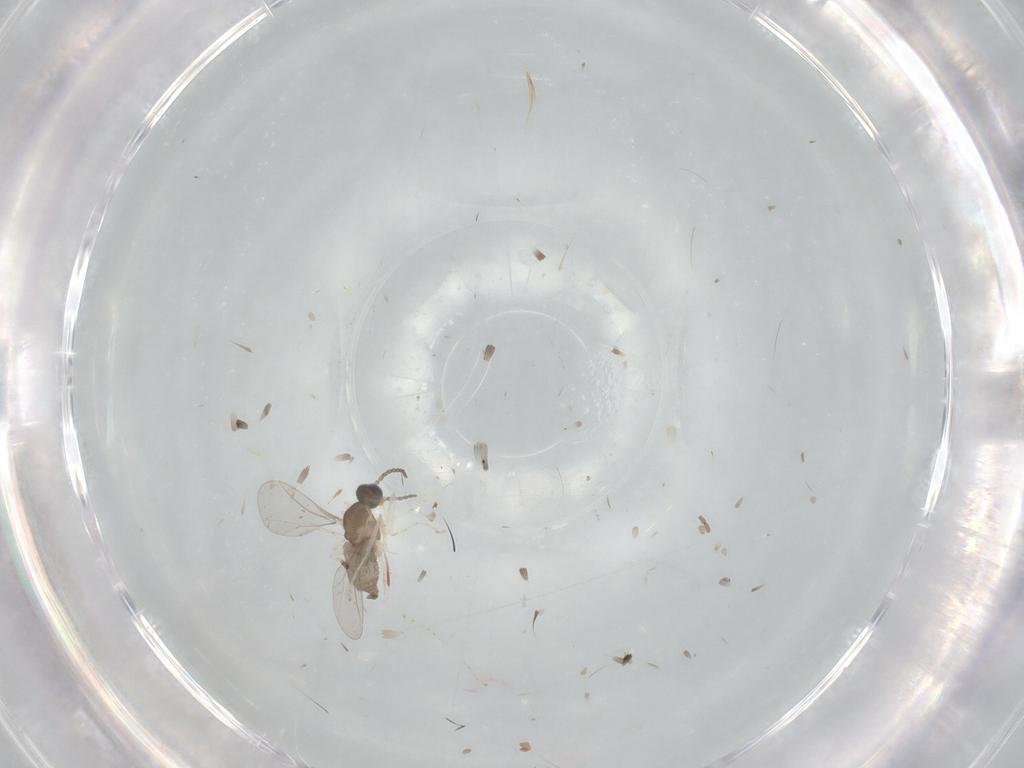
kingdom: Animalia
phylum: Arthropoda
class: Insecta
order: Diptera
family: Cecidomyiidae
